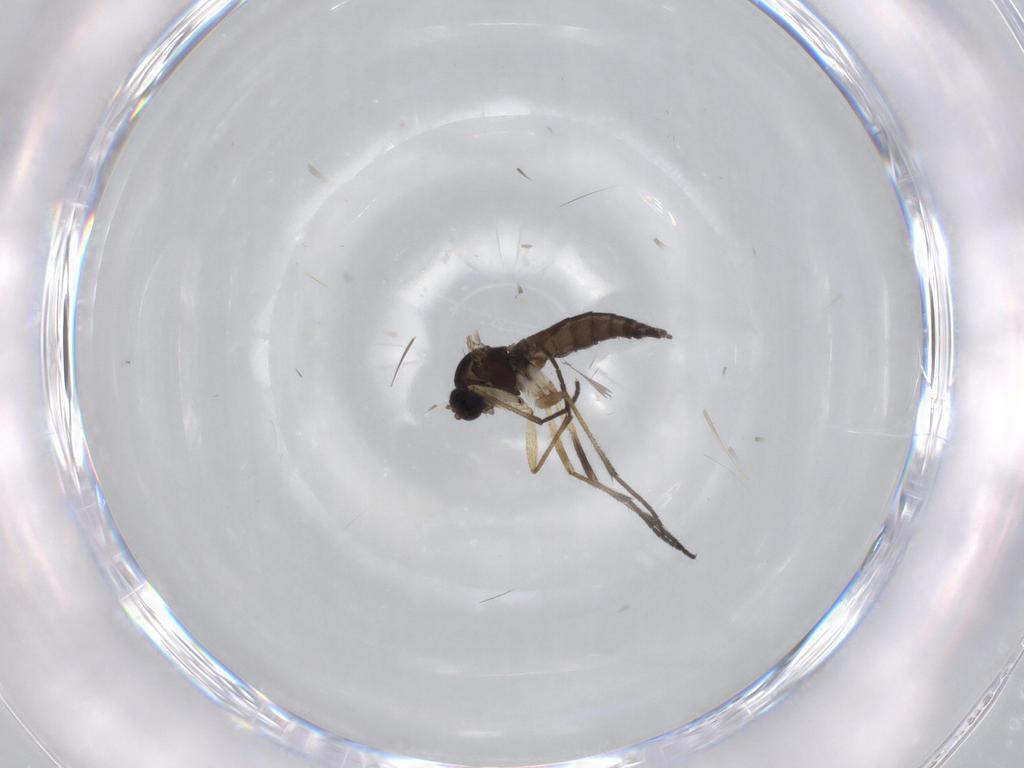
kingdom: Animalia
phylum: Arthropoda
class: Insecta
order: Diptera
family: Sciaridae
